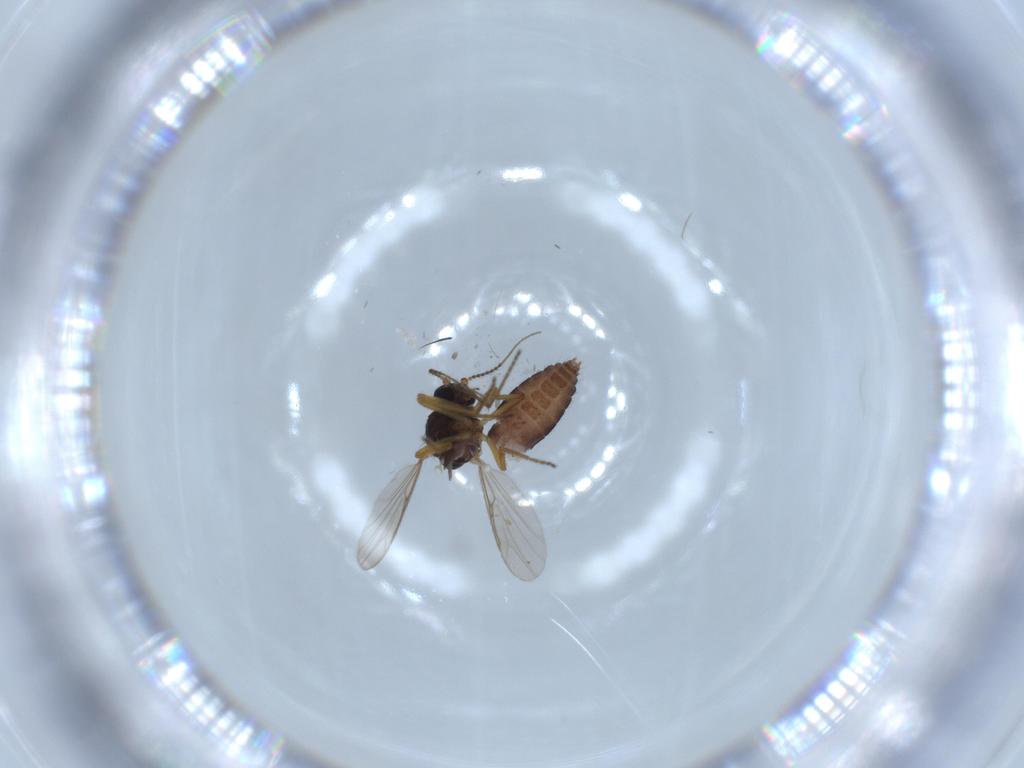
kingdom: Animalia
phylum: Arthropoda
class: Insecta
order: Diptera
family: Ceratopogonidae
